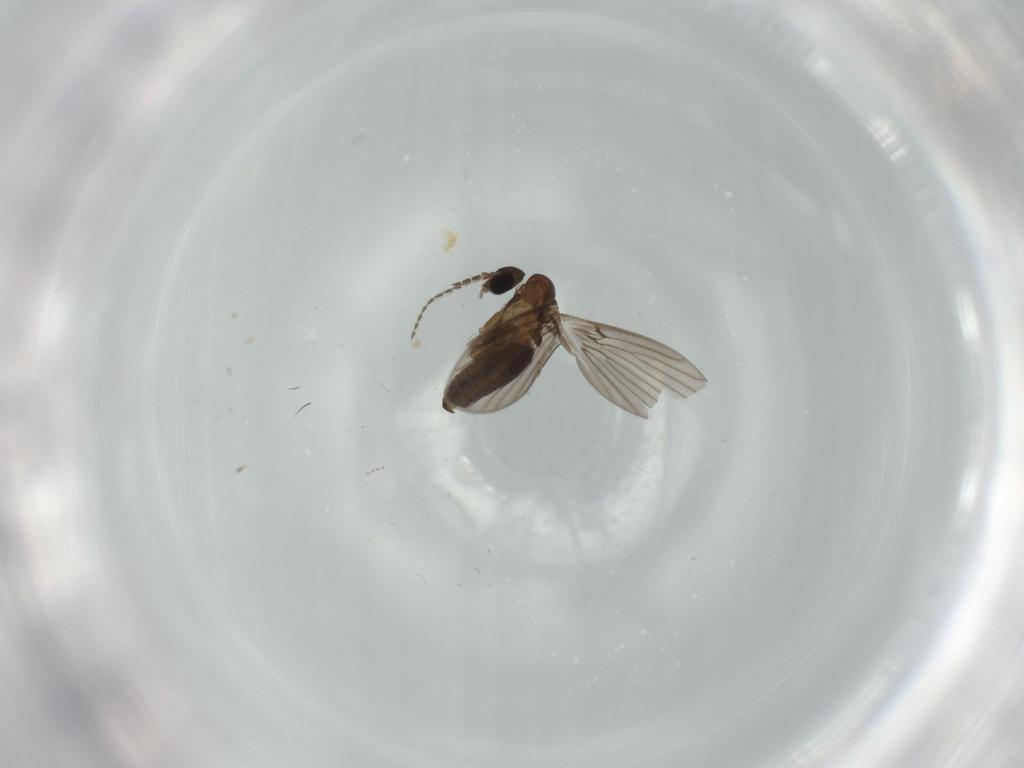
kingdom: Animalia
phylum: Arthropoda
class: Insecta
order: Diptera
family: Psychodidae
